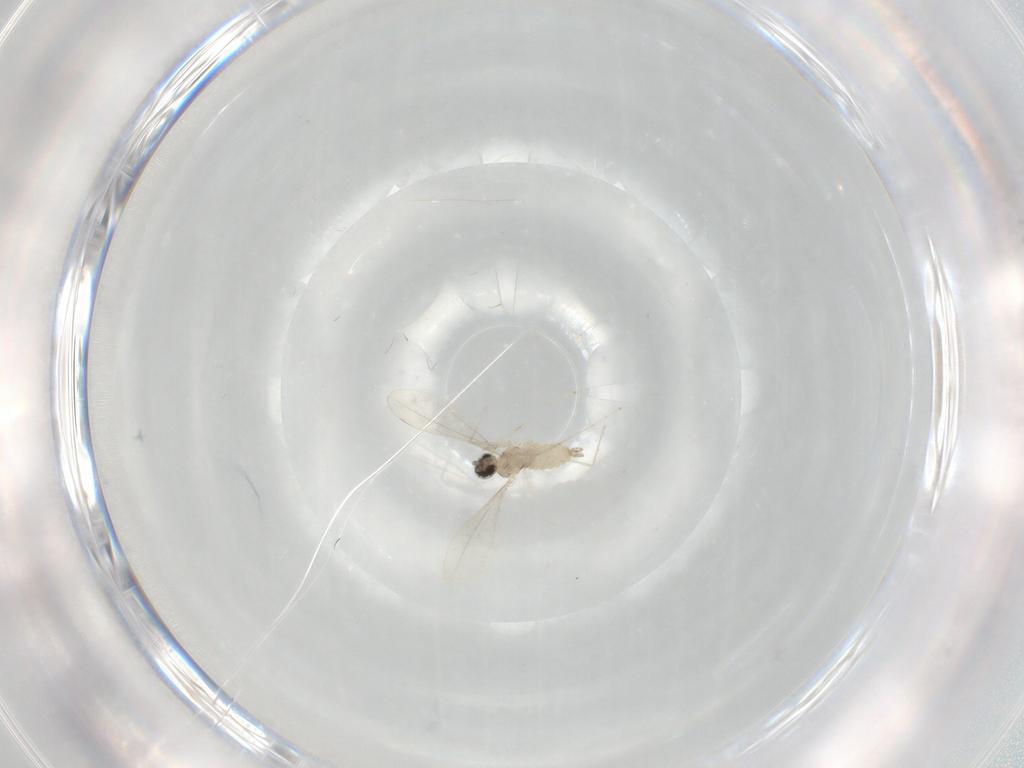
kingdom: Animalia
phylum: Arthropoda
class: Insecta
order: Diptera
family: Cecidomyiidae
